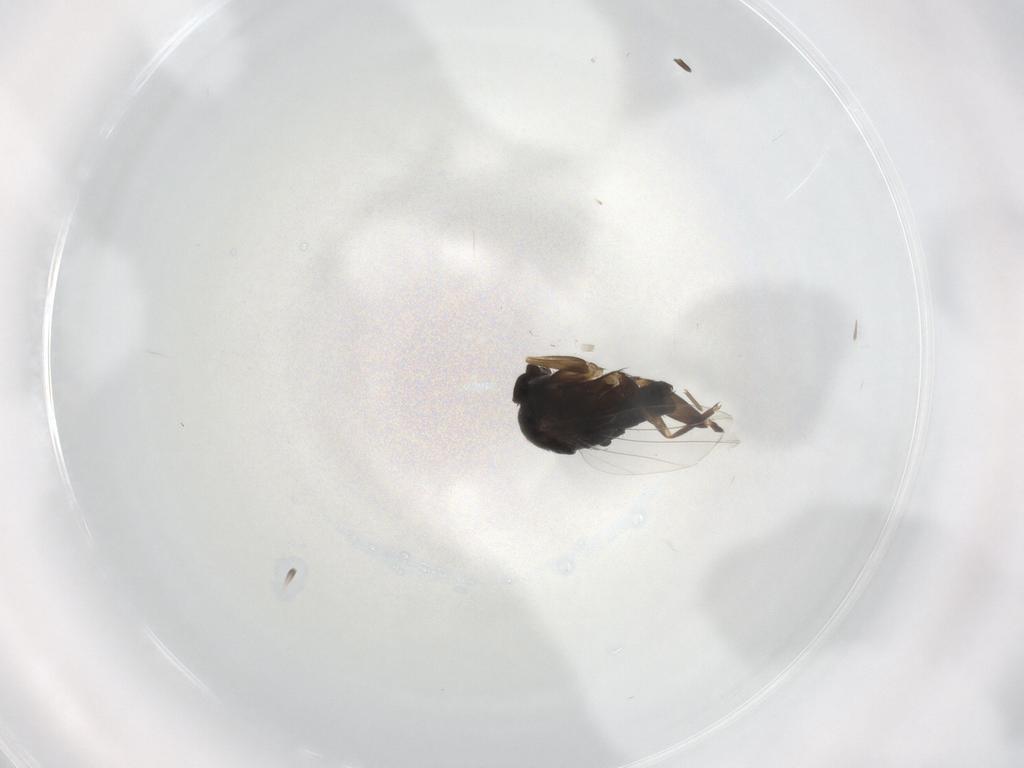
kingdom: Animalia
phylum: Arthropoda
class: Insecta
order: Diptera
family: Phoridae
